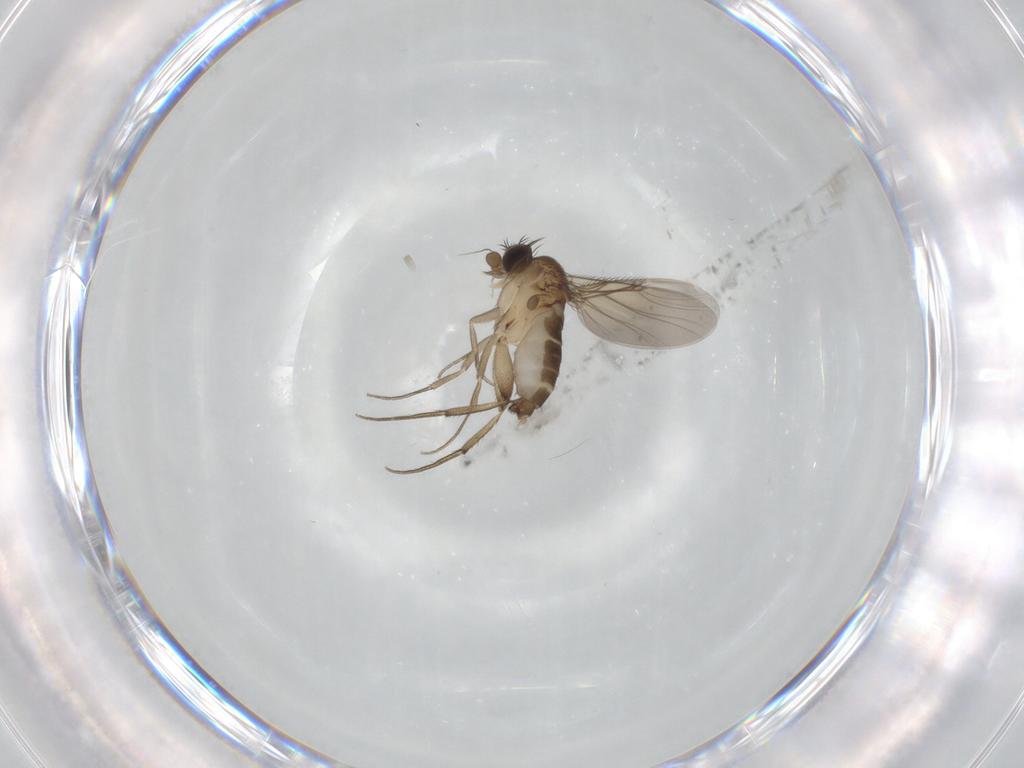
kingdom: Animalia
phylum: Arthropoda
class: Insecta
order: Diptera
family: Phoridae
